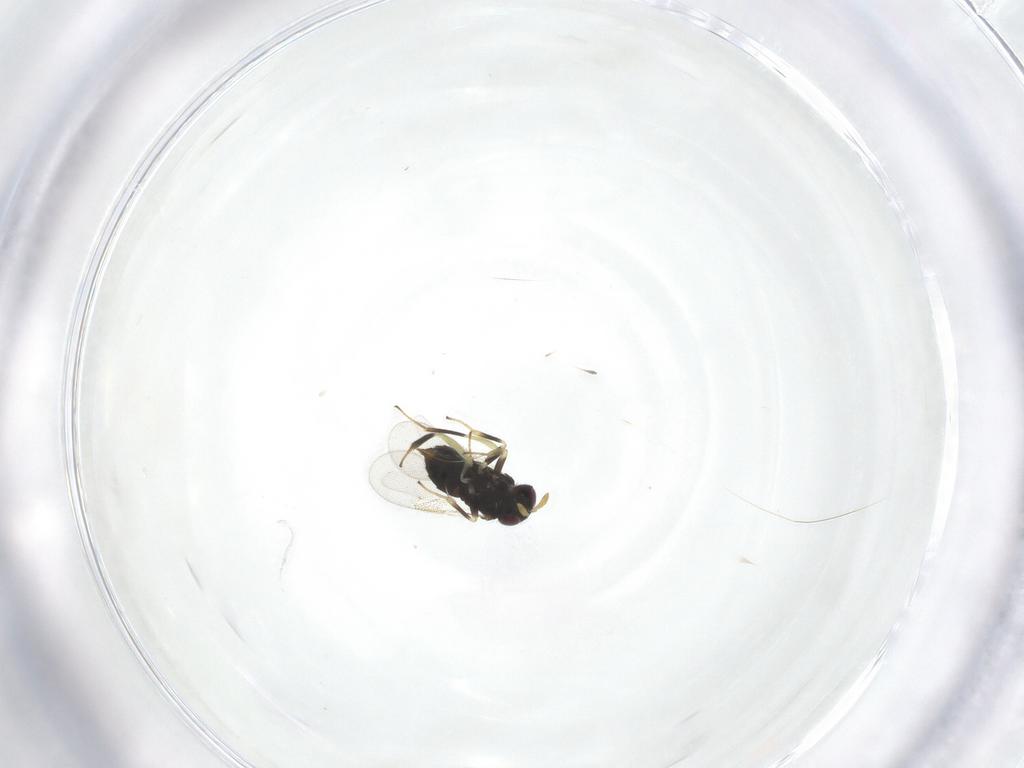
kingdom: Animalia
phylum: Arthropoda
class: Insecta
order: Hymenoptera
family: Aphelinidae
